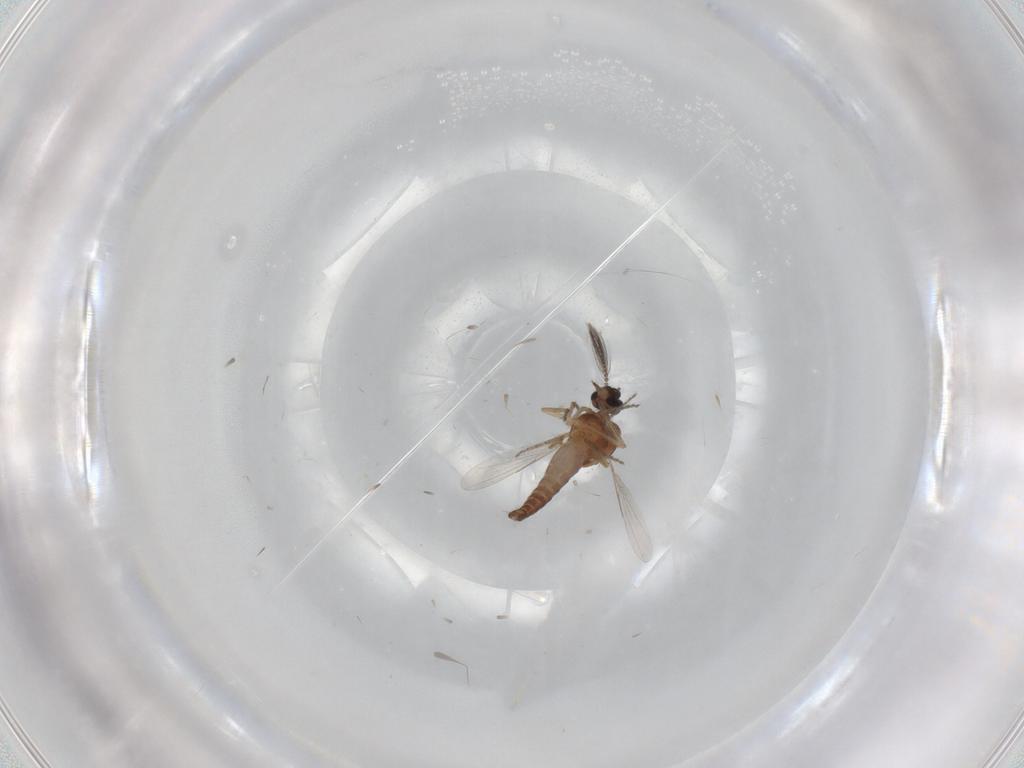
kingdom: Animalia
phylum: Arthropoda
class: Insecta
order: Diptera
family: Ceratopogonidae
